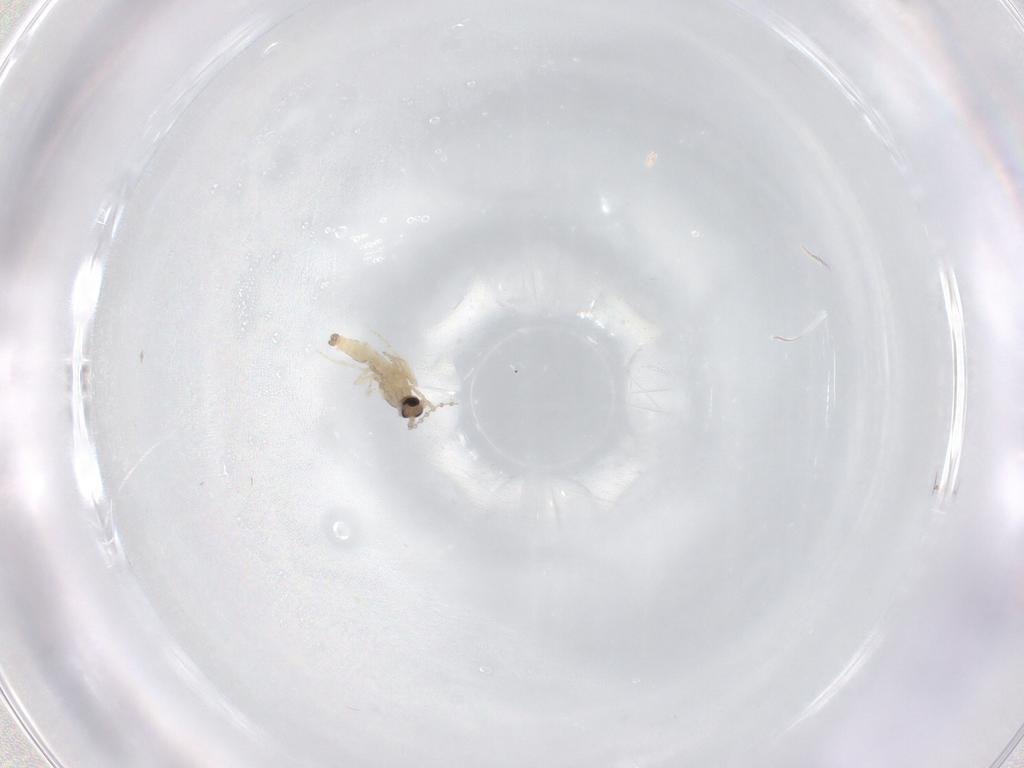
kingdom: Animalia
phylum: Arthropoda
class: Insecta
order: Diptera
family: Cecidomyiidae
